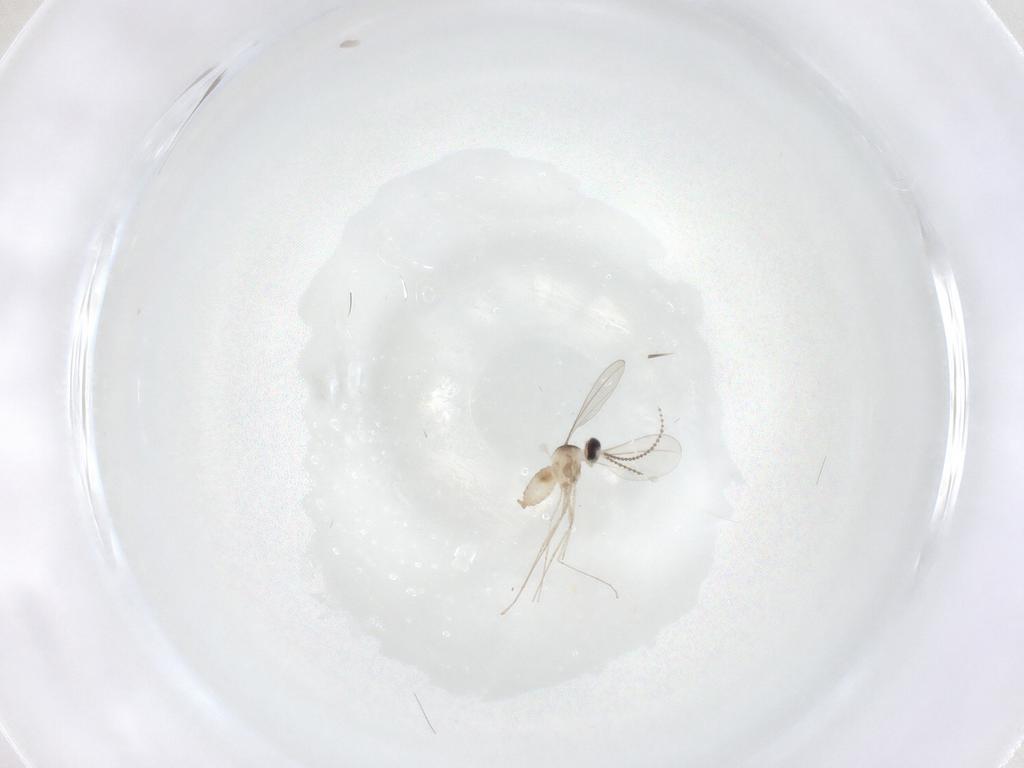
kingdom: Animalia
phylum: Arthropoda
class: Insecta
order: Diptera
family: Cecidomyiidae
